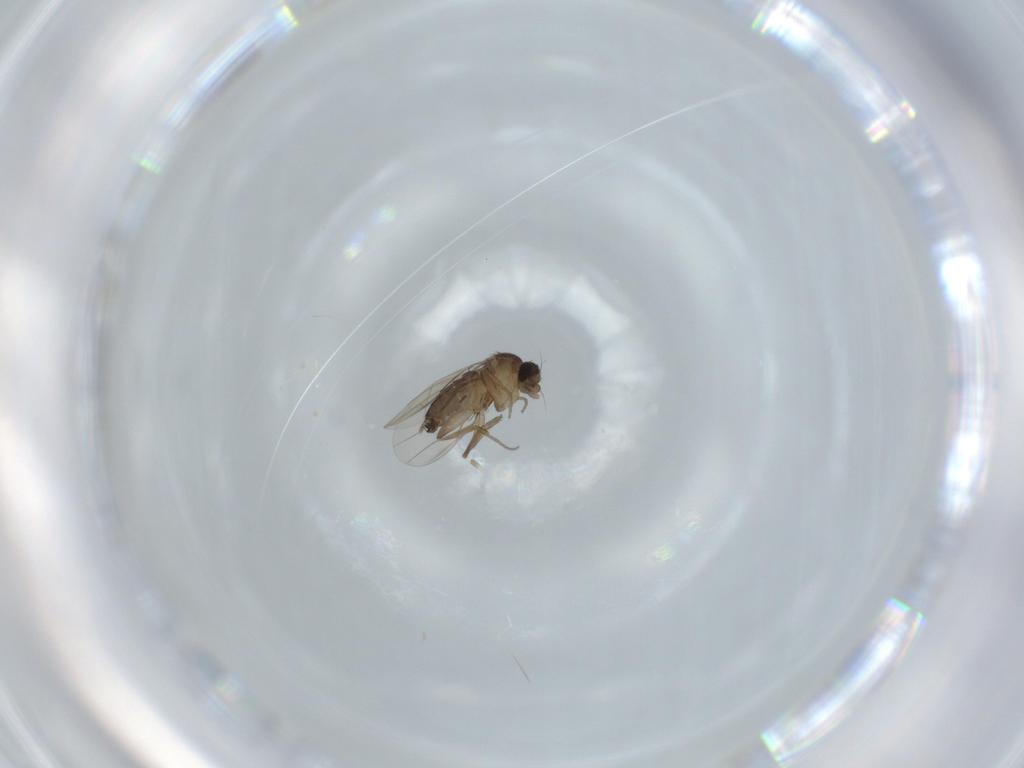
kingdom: Animalia
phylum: Arthropoda
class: Insecta
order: Diptera
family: Phoridae
